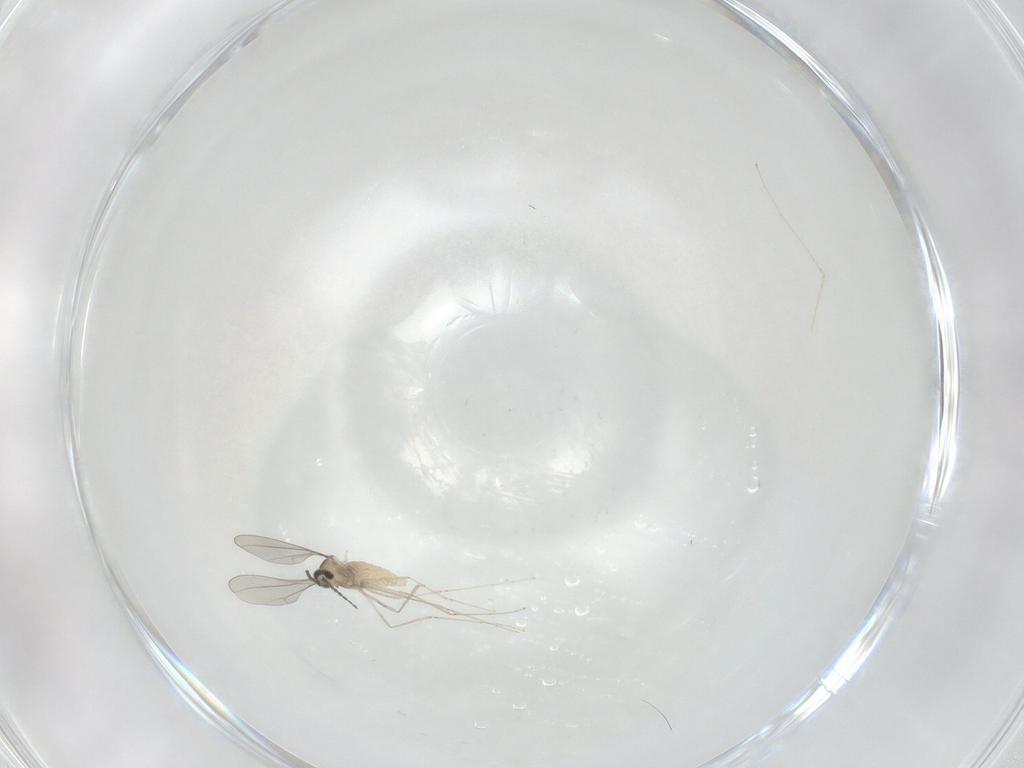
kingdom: Animalia
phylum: Arthropoda
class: Insecta
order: Diptera
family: Cecidomyiidae
